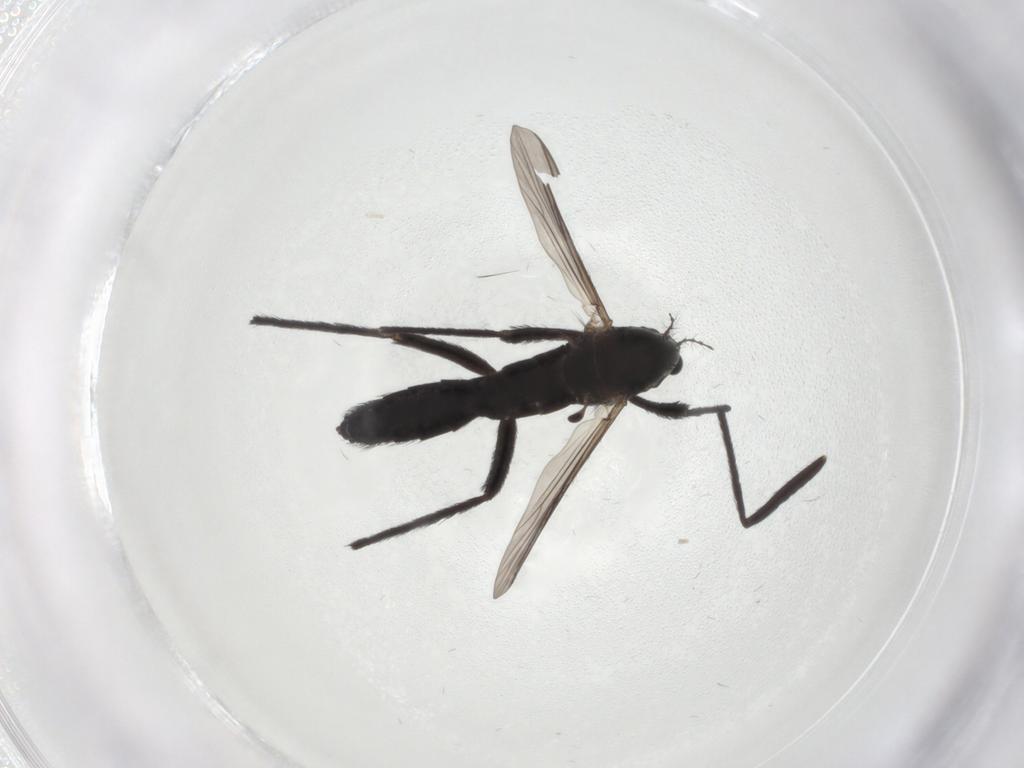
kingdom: Animalia
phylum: Arthropoda
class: Insecta
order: Diptera
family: Chironomidae
